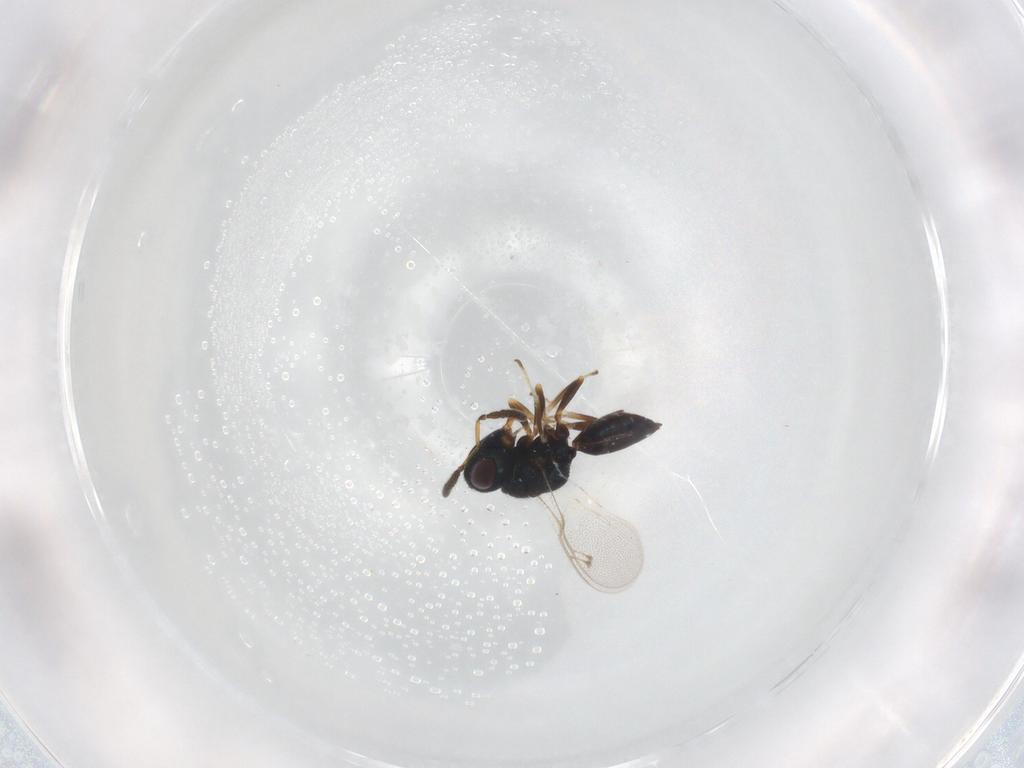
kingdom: Animalia
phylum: Arthropoda
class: Insecta
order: Hymenoptera
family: Pteromalidae
